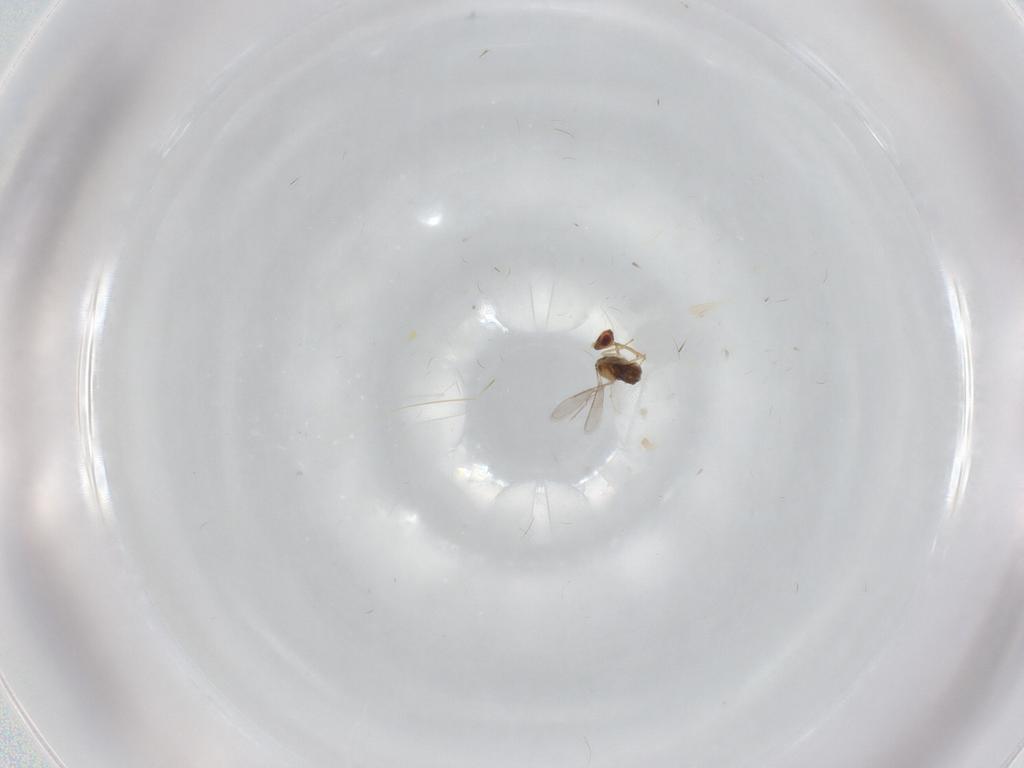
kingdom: Animalia
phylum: Arthropoda
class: Insecta
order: Hymenoptera
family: Aphelinidae
